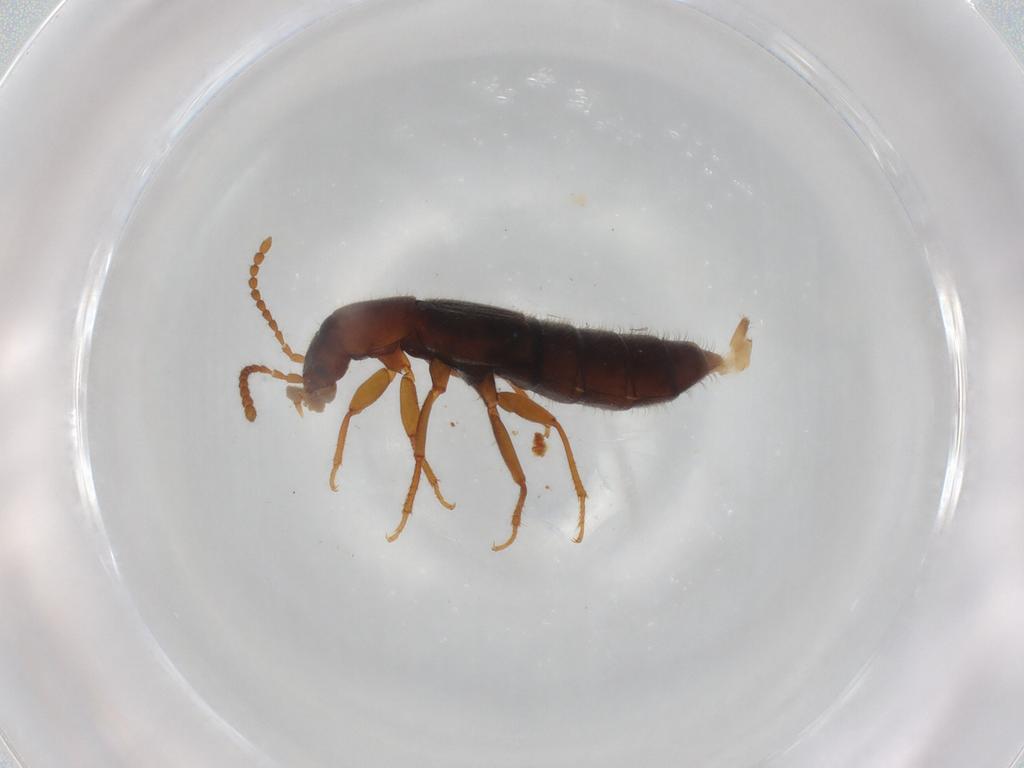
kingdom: Animalia
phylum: Arthropoda
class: Insecta
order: Coleoptera
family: Staphylinidae
